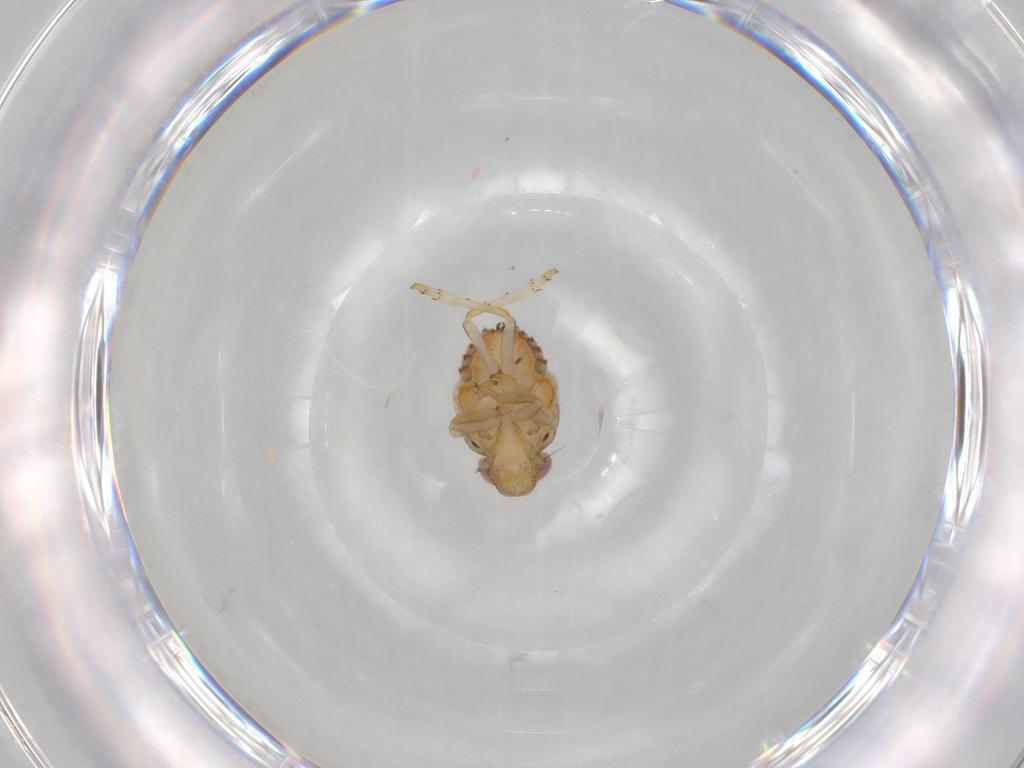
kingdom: Animalia
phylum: Arthropoda
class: Insecta
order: Hemiptera
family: Issidae
